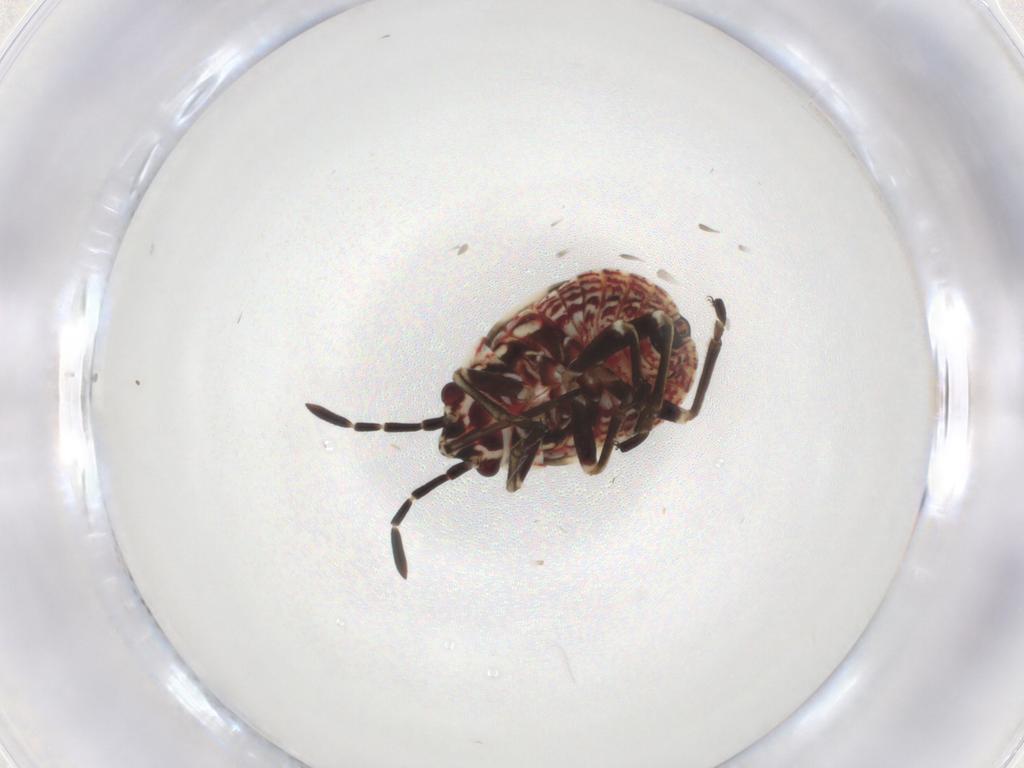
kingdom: Animalia
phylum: Arthropoda
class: Insecta
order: Hemiptera
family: Lygaeidae
